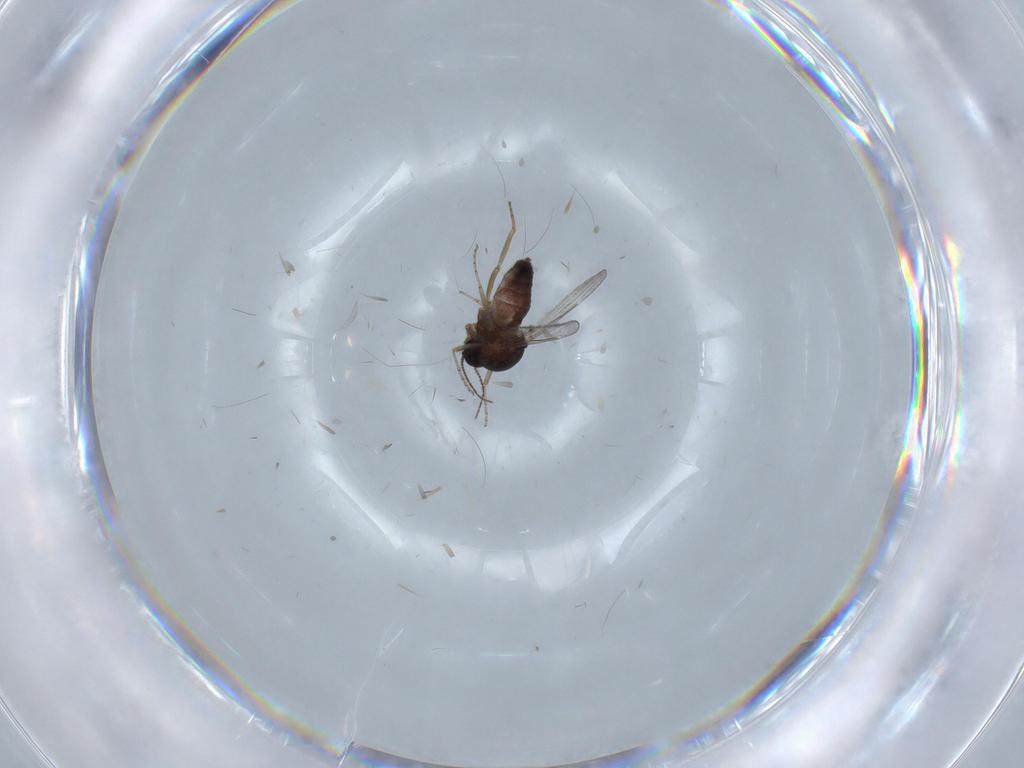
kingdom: Animalia
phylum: Arthropoda
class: Insecta
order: Diptera
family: Ceratopogonidae
